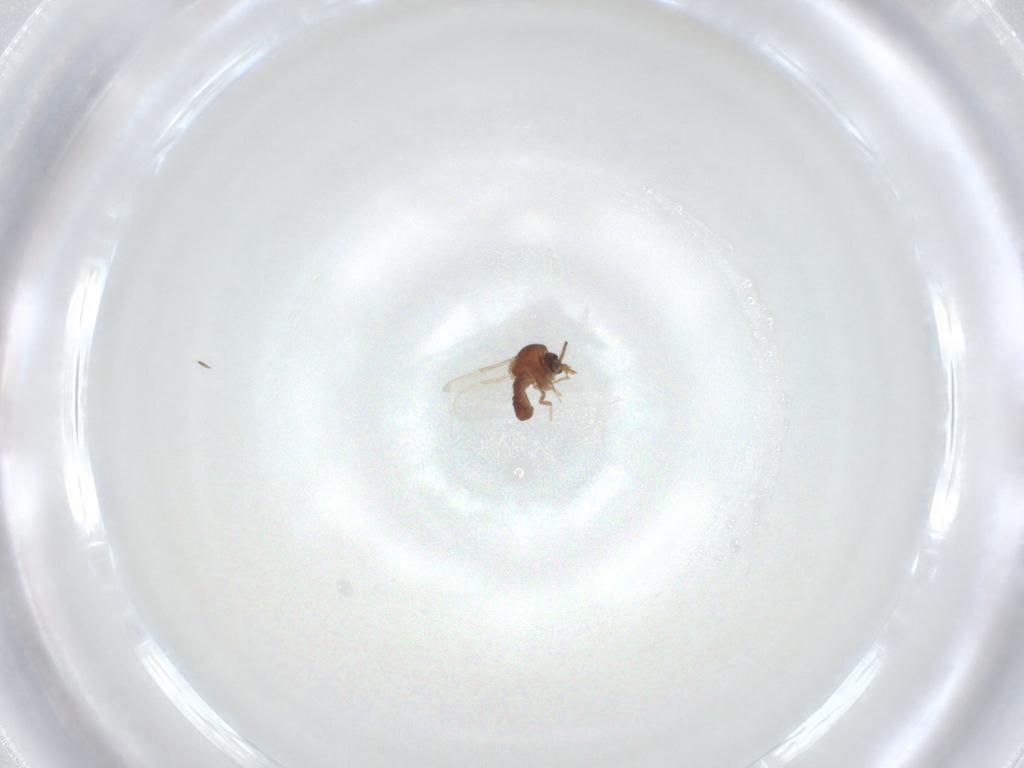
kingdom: Animalia
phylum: Arthropoda
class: Insecta
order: Diptera
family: Ceratopogonidae
